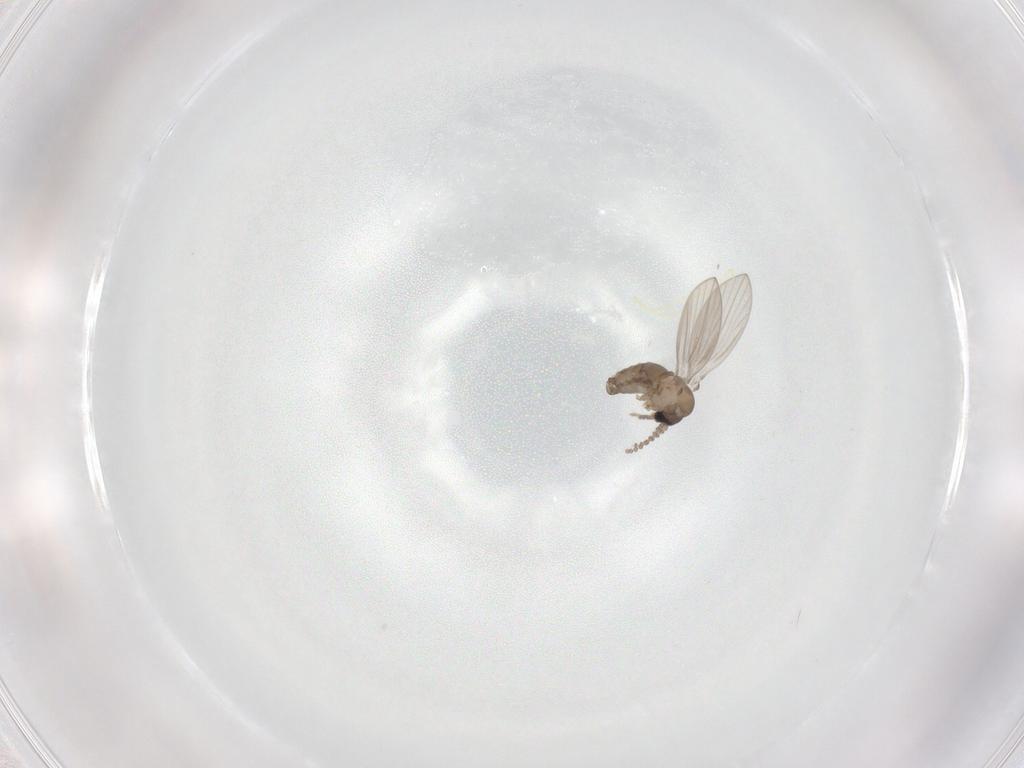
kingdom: Animalia
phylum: Arthropoda
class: Insecta
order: Diptera
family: Psychodidae
